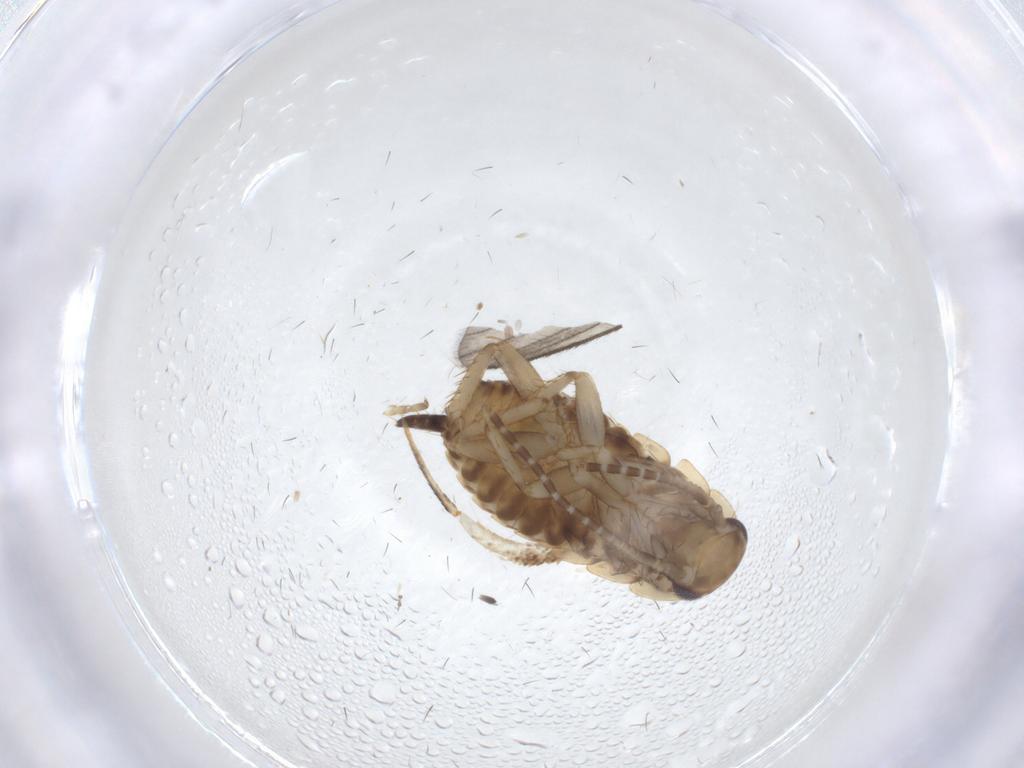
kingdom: Animalia
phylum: Arthropoda
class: Insecta
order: Blattodea
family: Ectobiidae
